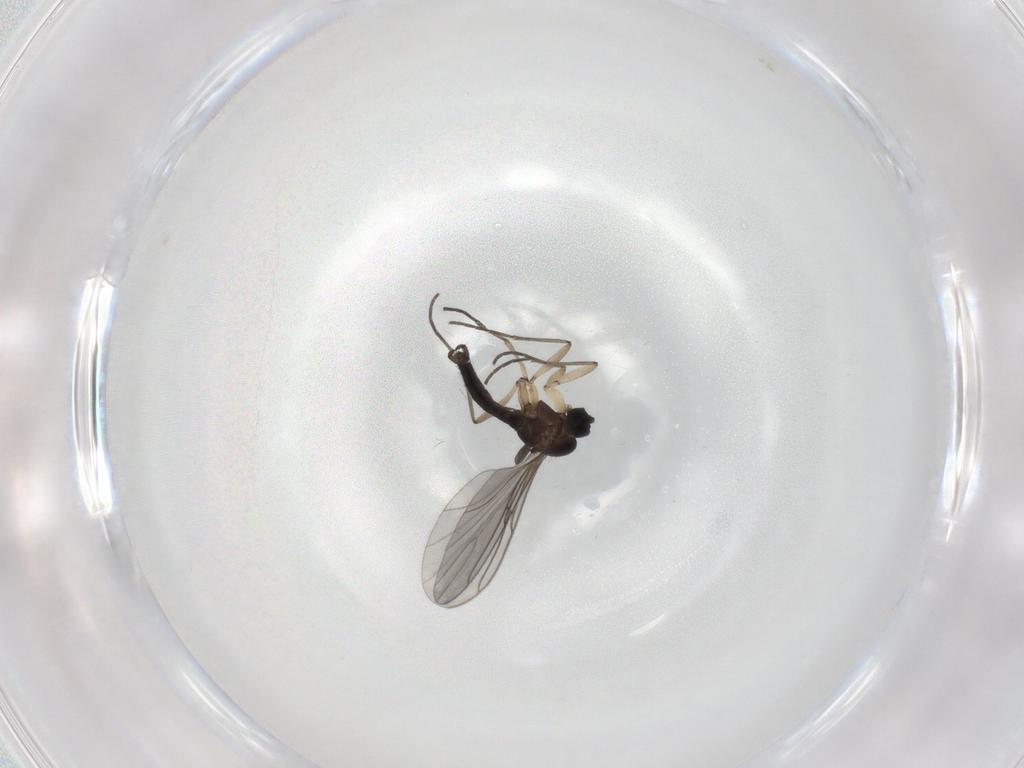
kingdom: Animalia
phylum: Arthropoda
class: Insecta
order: Diptera
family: Sciaridae
